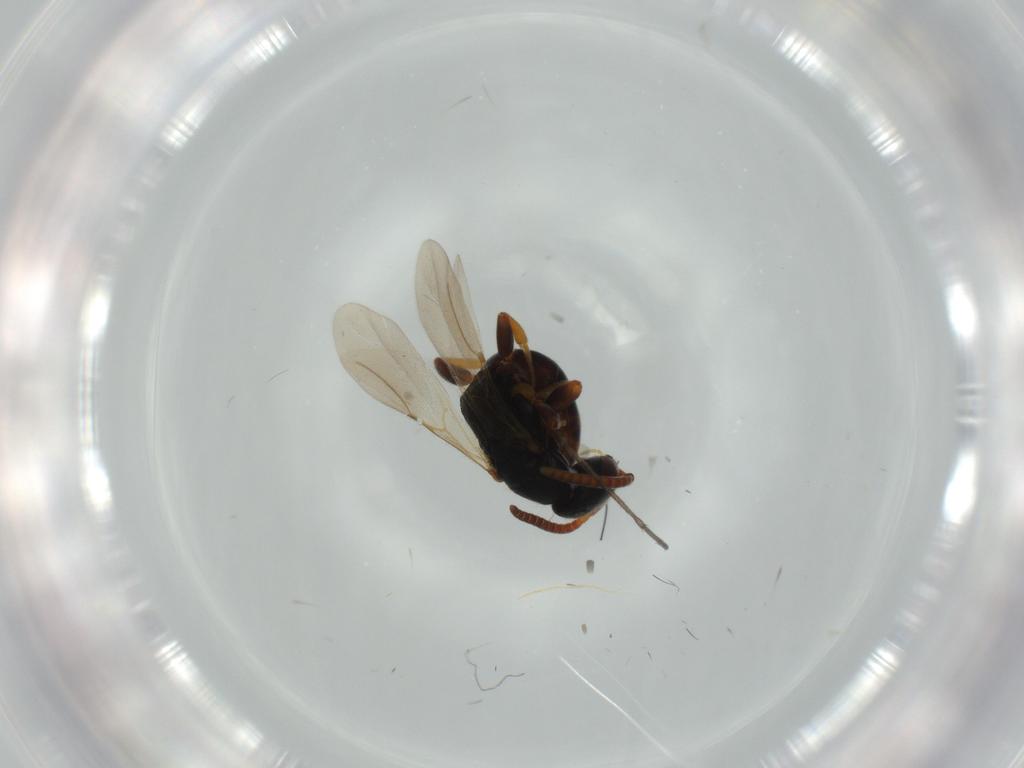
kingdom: Animalia
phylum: Arthropoda
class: Insecta
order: Hymenoptera
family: Bethylidae
